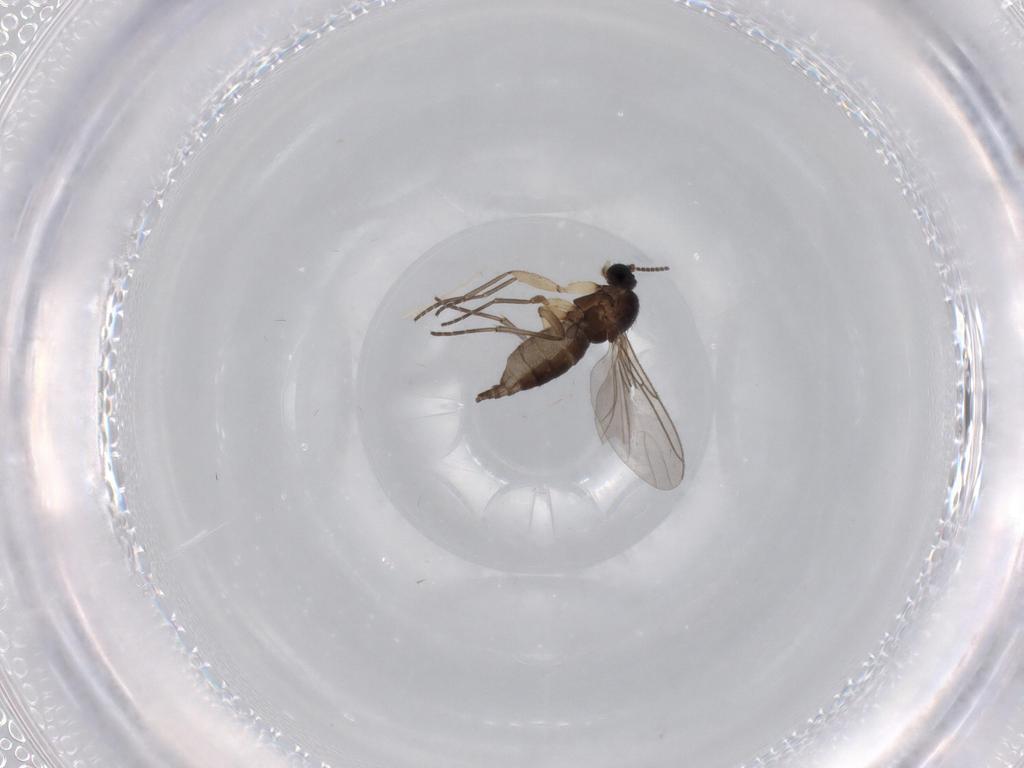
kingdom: Animalia
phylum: Arthropoda
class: Insecta
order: Diptera
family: Sciaridae
